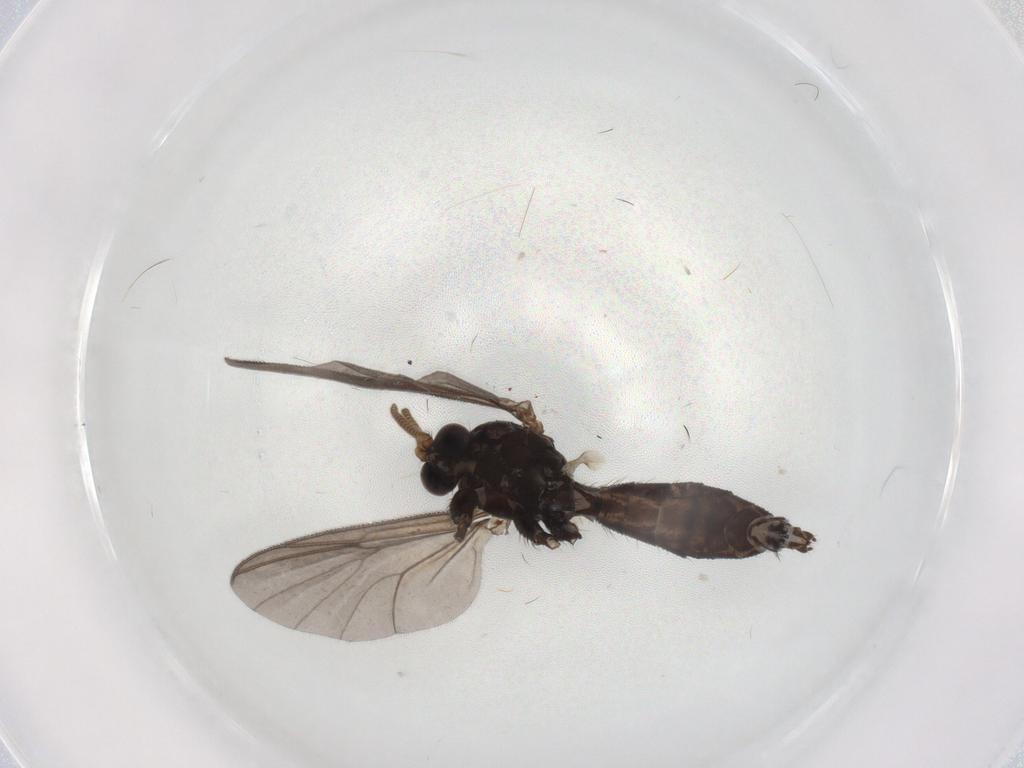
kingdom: Animalia
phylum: Arthropoda
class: Insecta
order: Diptera
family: Mycetophilidae
